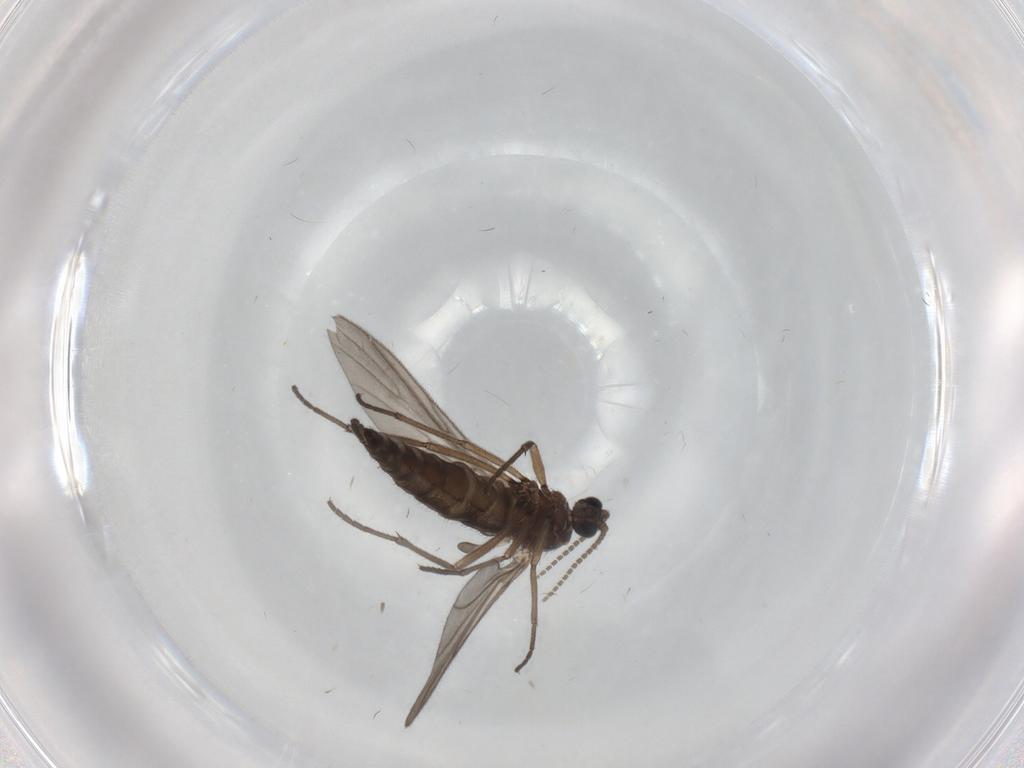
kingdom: Animalia
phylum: Arthropoda
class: Insecta
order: Diptera
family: Sciaridae
